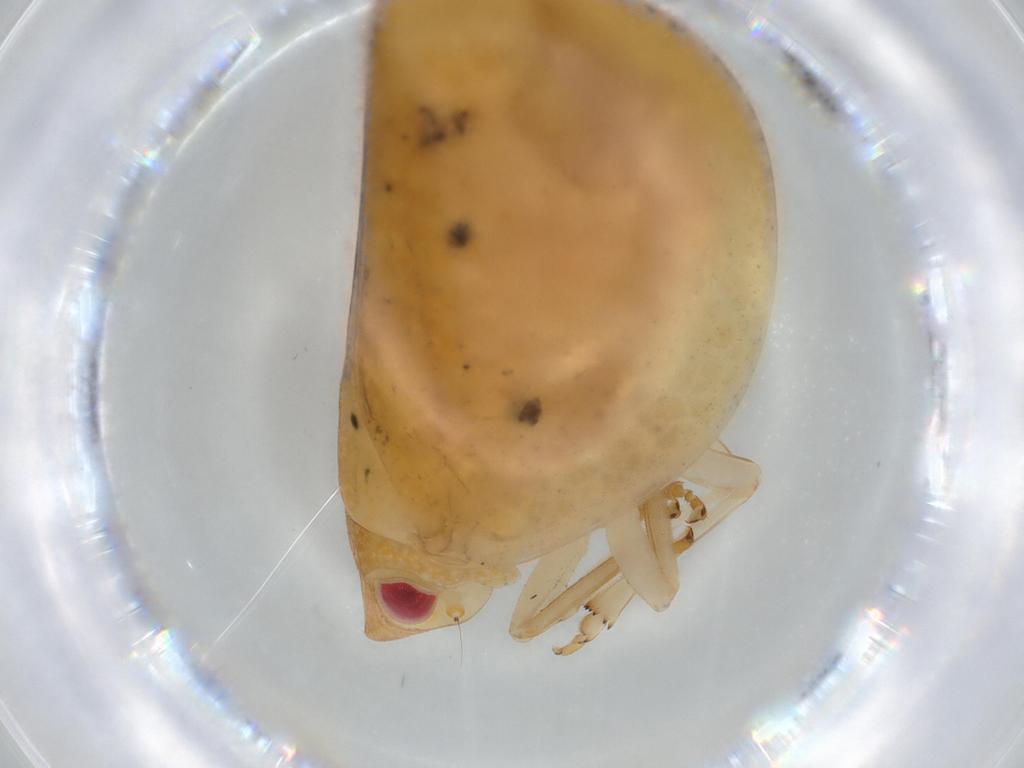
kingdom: Animalia
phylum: Arthropoda
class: Insecta
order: Hemiptera
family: Acanaloniidae
